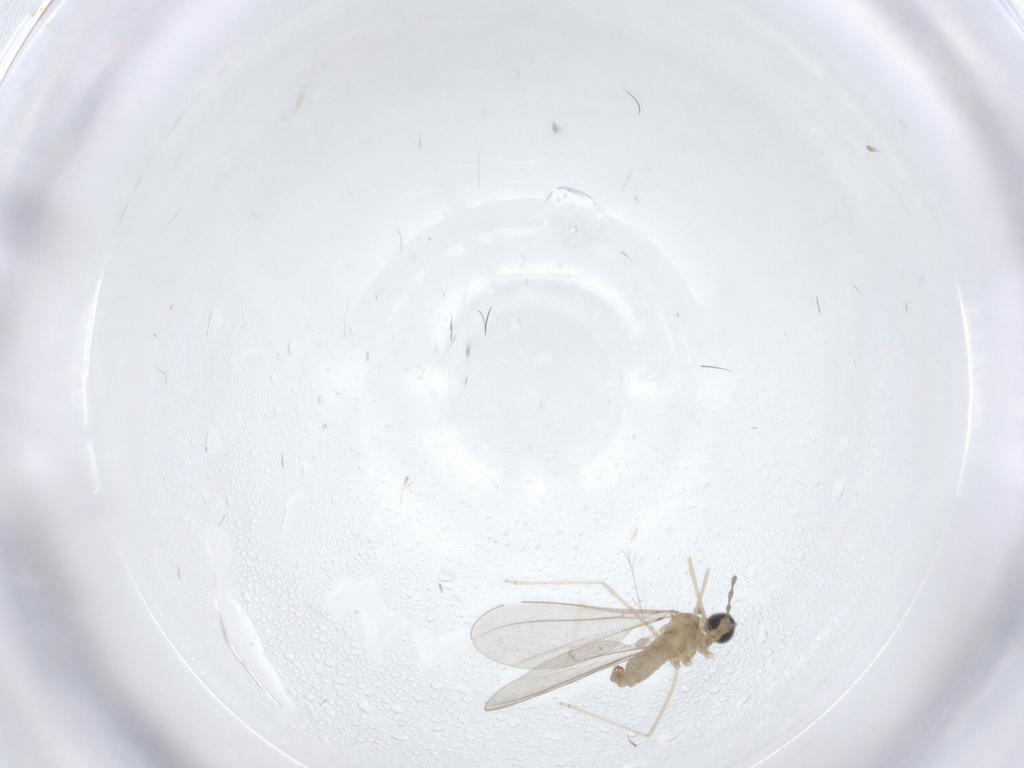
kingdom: Animalia
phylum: Arthropoda
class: Insecta
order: Diptera
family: Cecidomyiidae
